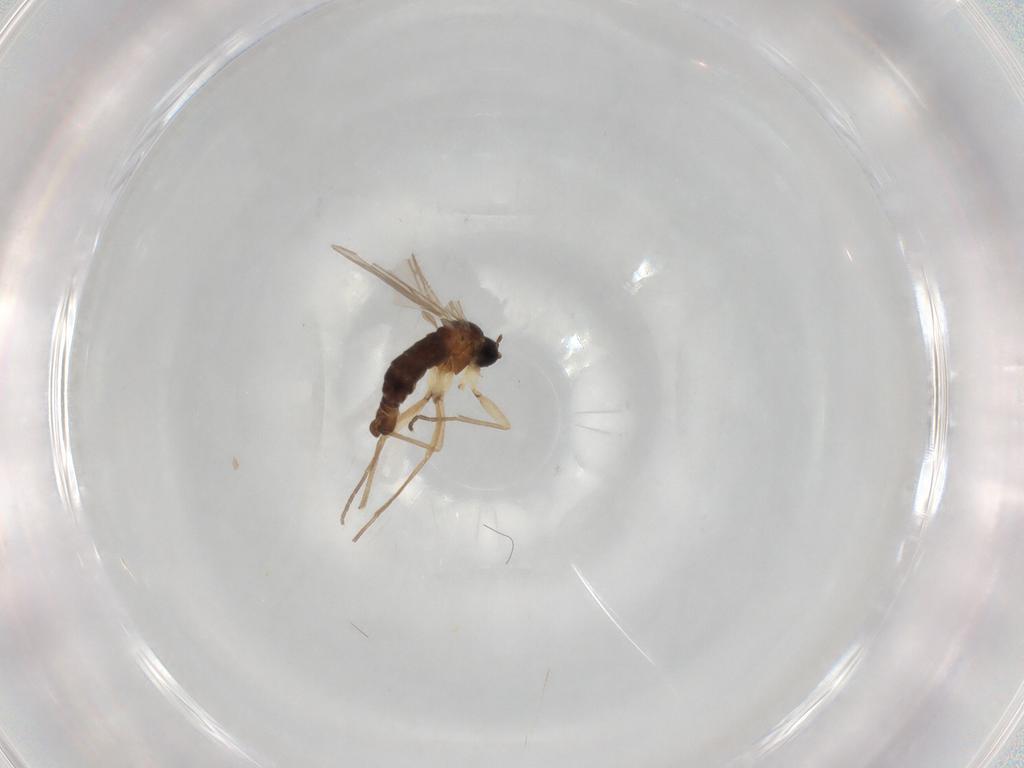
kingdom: Animalia
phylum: Arthropoda
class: Insecta
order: Diptera
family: Sciaridae
